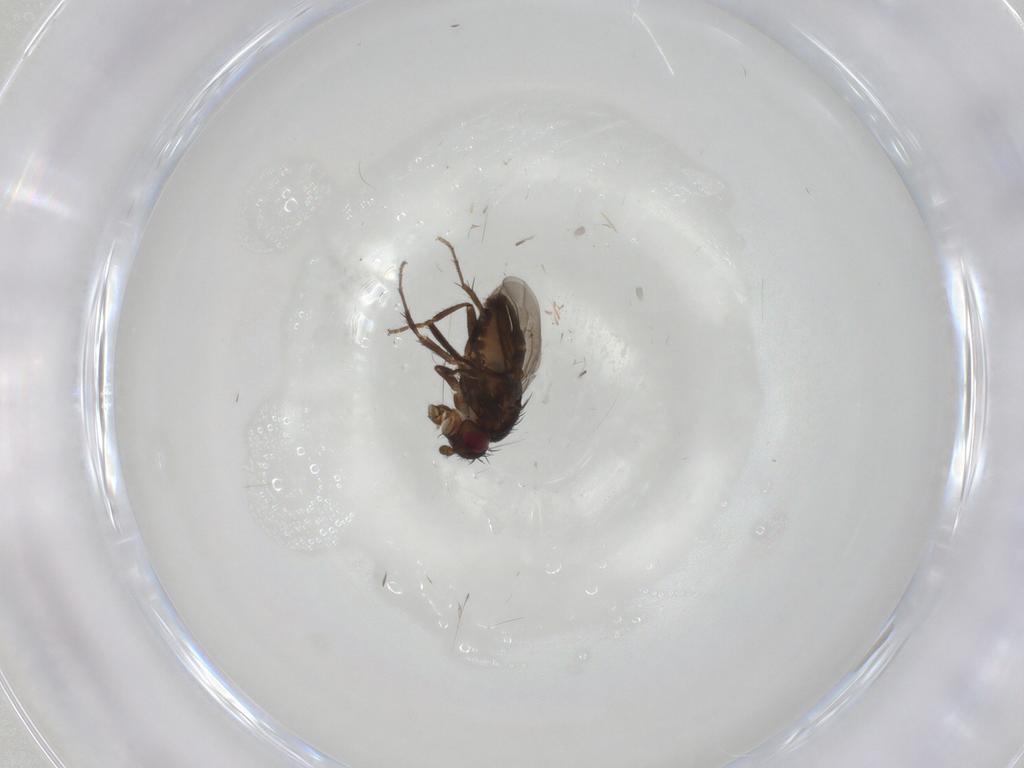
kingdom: Animalia
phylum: Arthropoda
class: Insecta
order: Diptera
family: Sphaeroceridae
